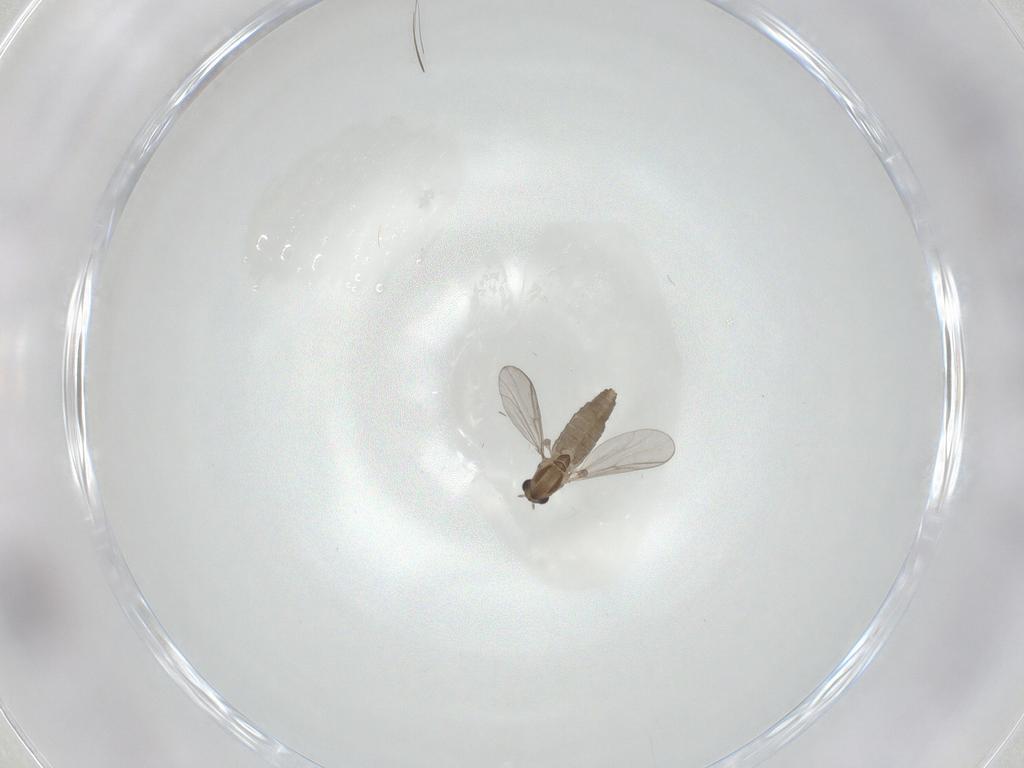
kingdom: Animalia
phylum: Arthropoda
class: Insecta
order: Diptera
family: Chironomidae
